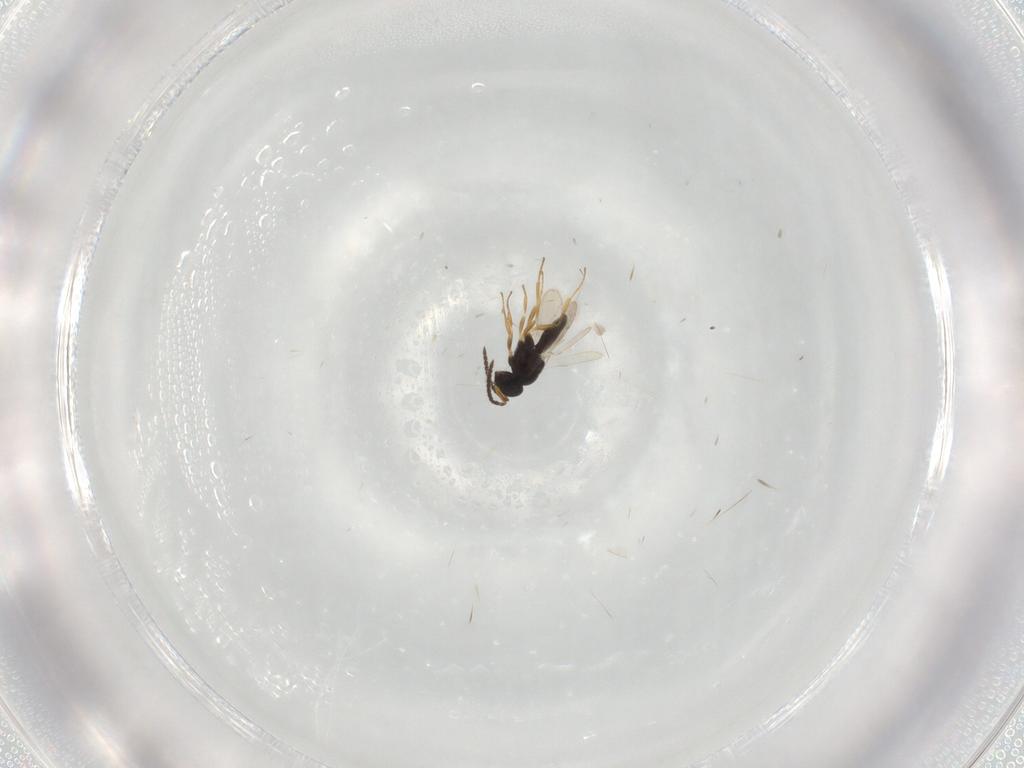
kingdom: Animalia
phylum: Arthropoda
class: Insecta
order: Hymenoptera
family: Scelionidae
